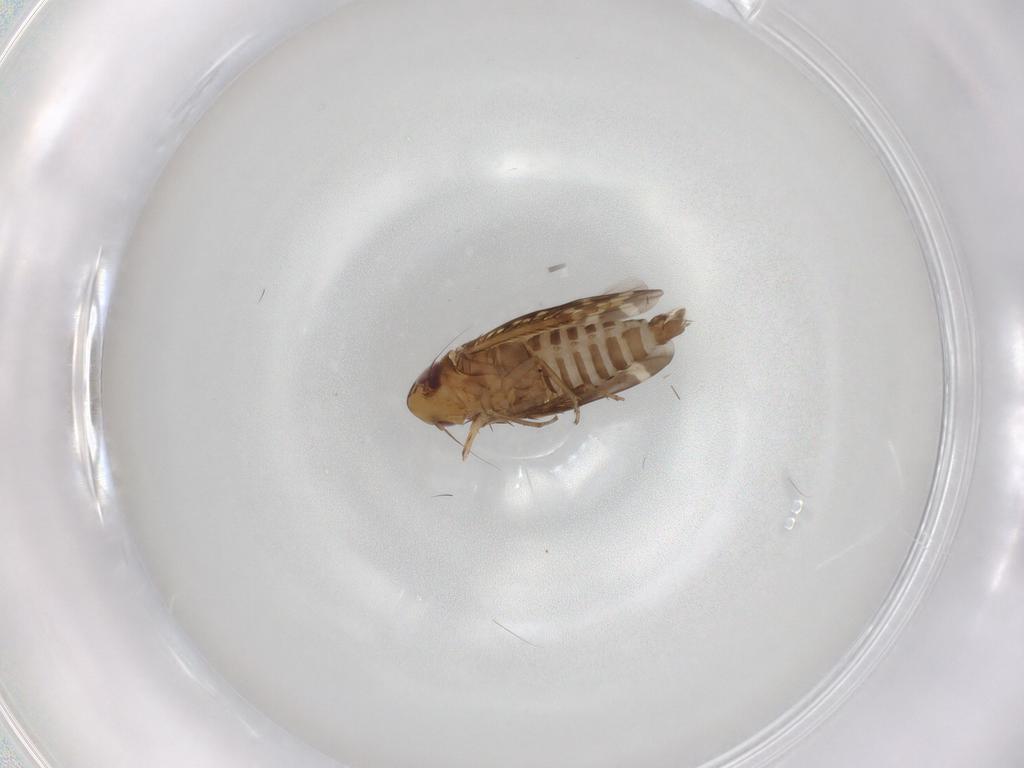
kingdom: Animalia
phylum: Arthropoda
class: Insecta
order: Hemiptera
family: Cicadellidae
